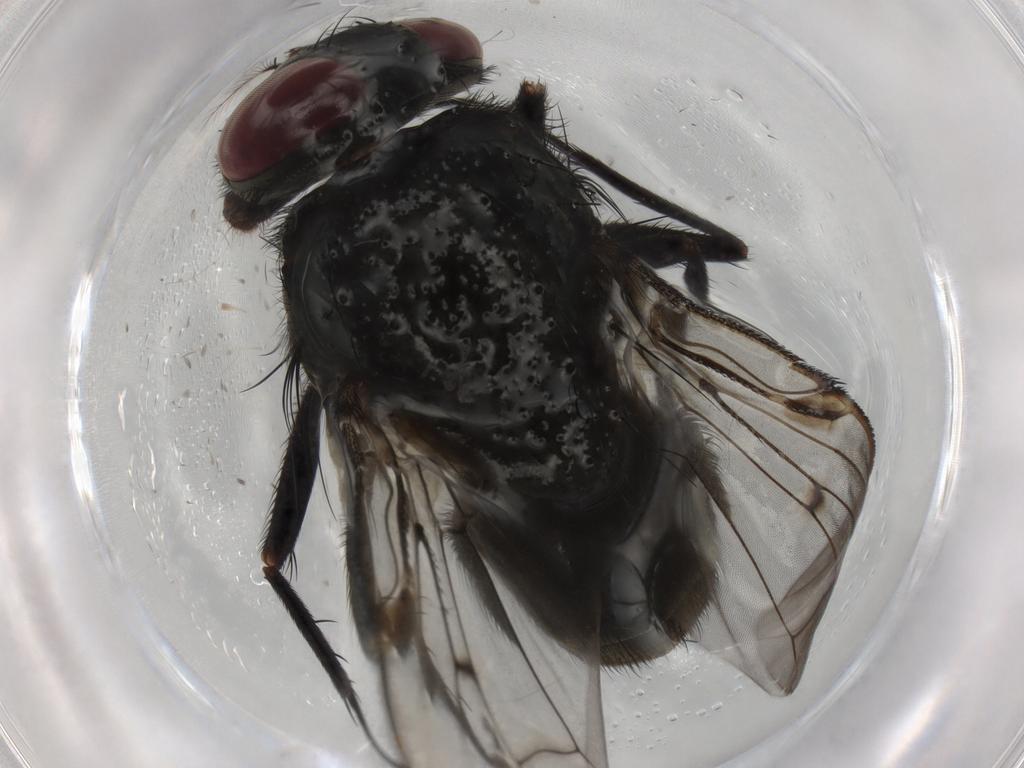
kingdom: Animalia
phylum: Arthropoda
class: Insecta
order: Diptera
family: Muscidae
